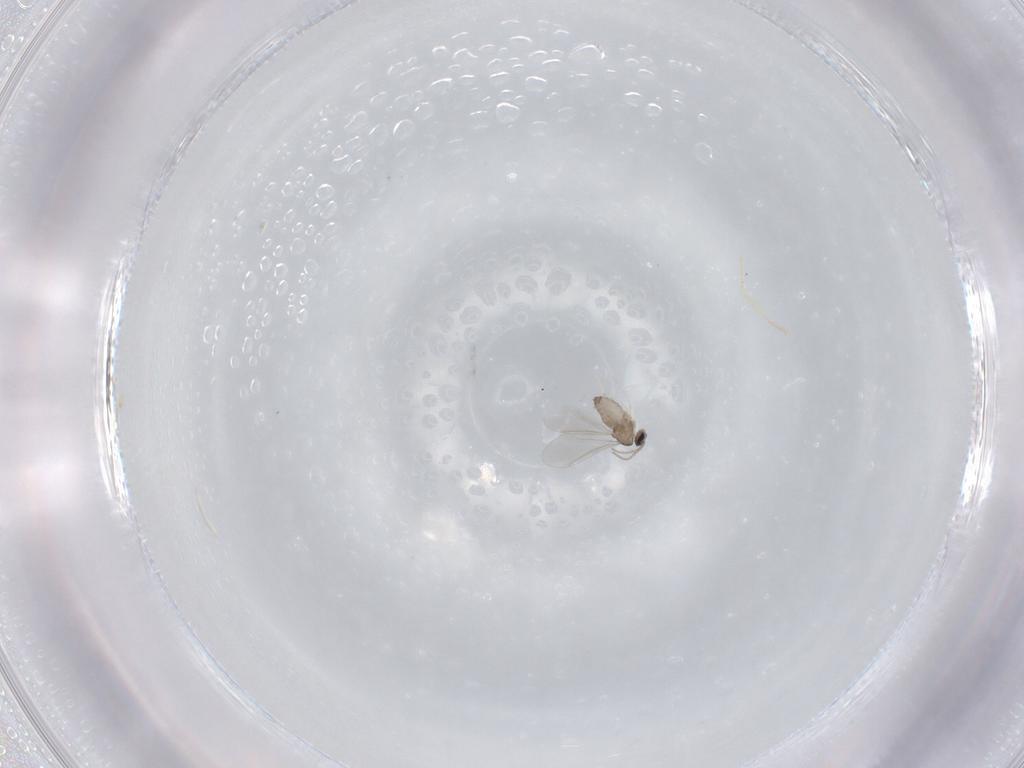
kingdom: Animalia
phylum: Arthropoda
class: Insecta
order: Diptera
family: Cecidomyiidae
